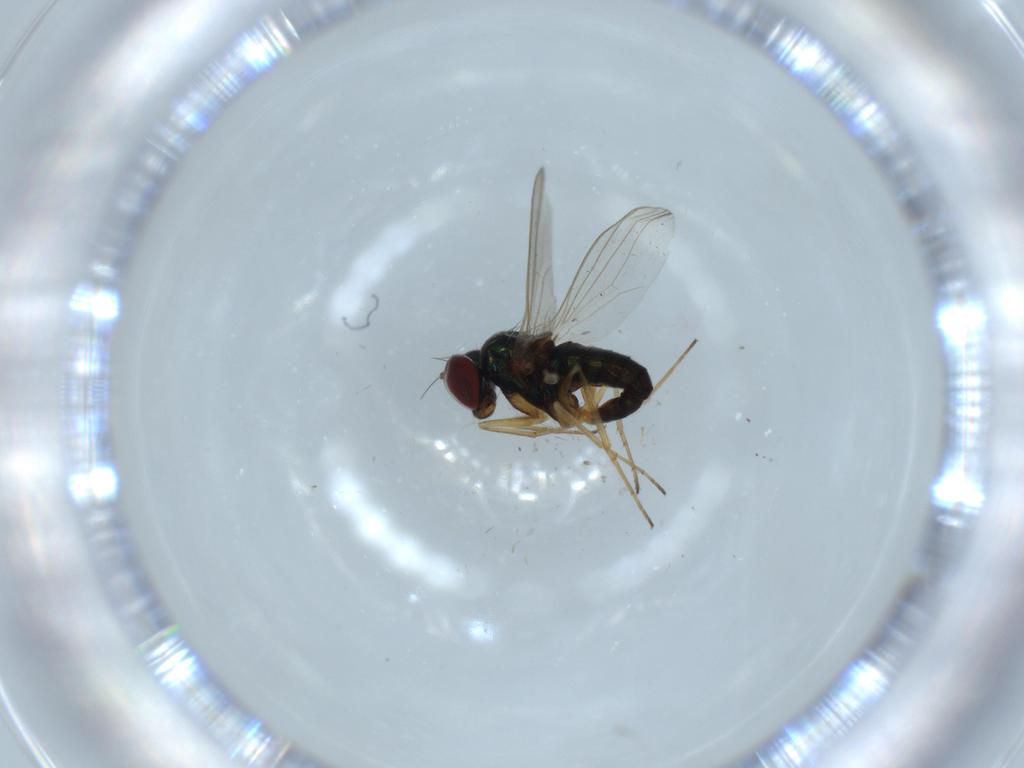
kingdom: Animalia
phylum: Arthropoda
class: Insecta
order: Diptera
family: Dolichopodidae
